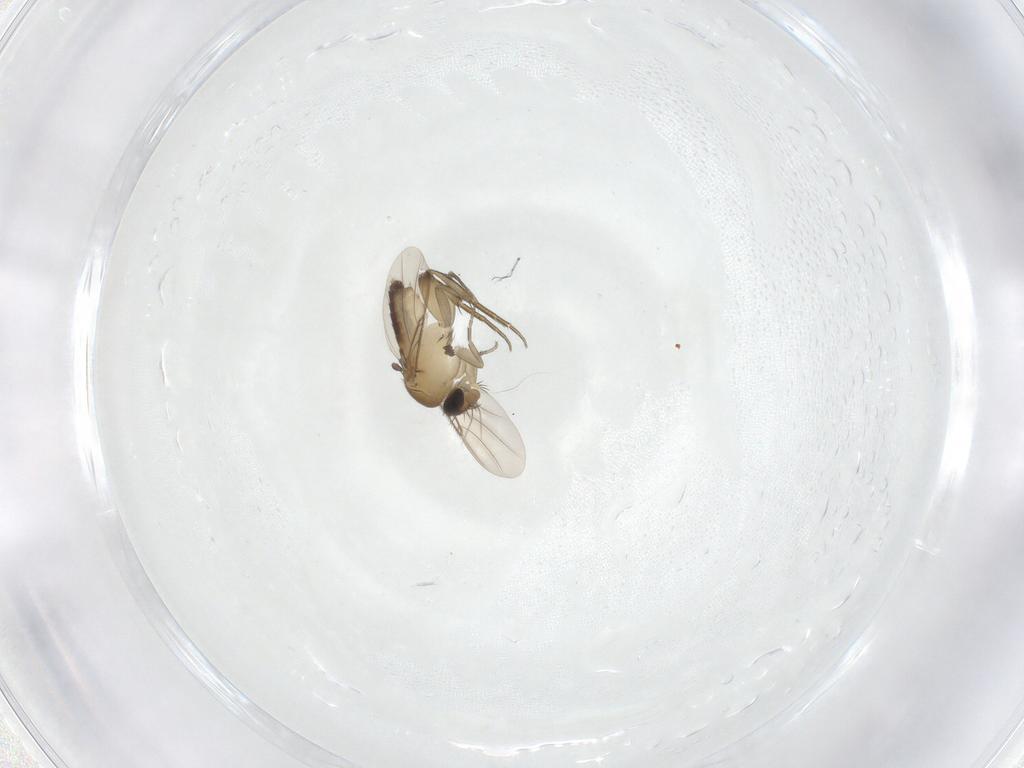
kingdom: Animalia
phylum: Arthropoda
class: Insecta
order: Diptera
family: Phoridae
